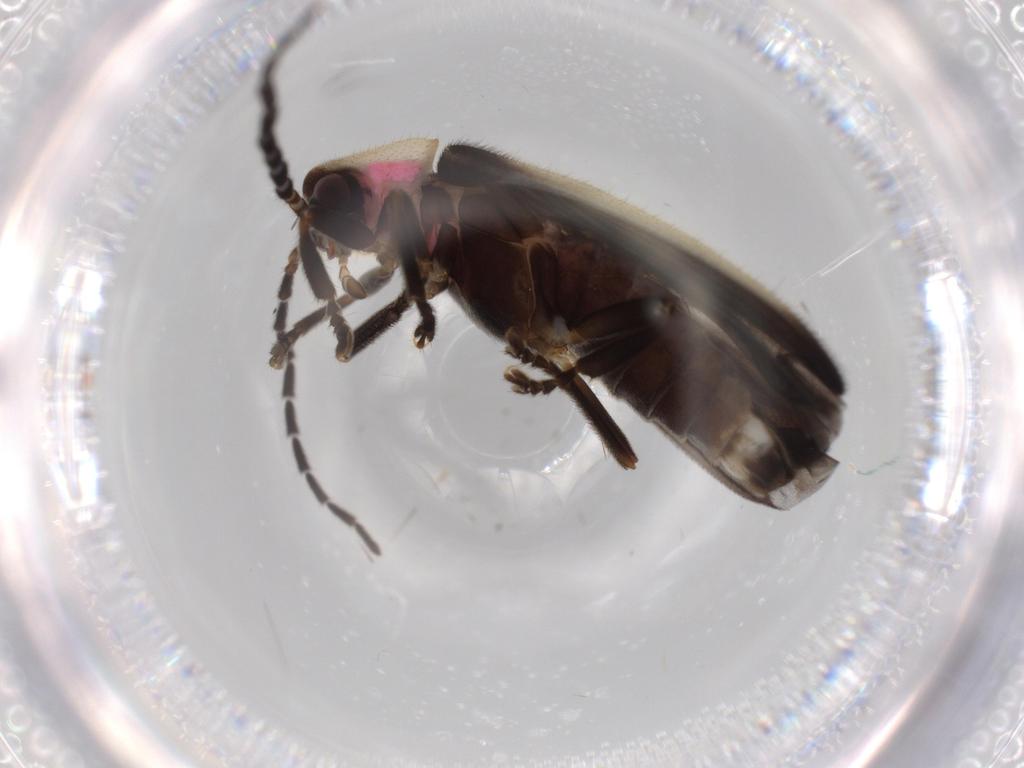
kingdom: Animalia
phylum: Arthropoda
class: Insecta
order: Coleoptera
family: Lampyridae
